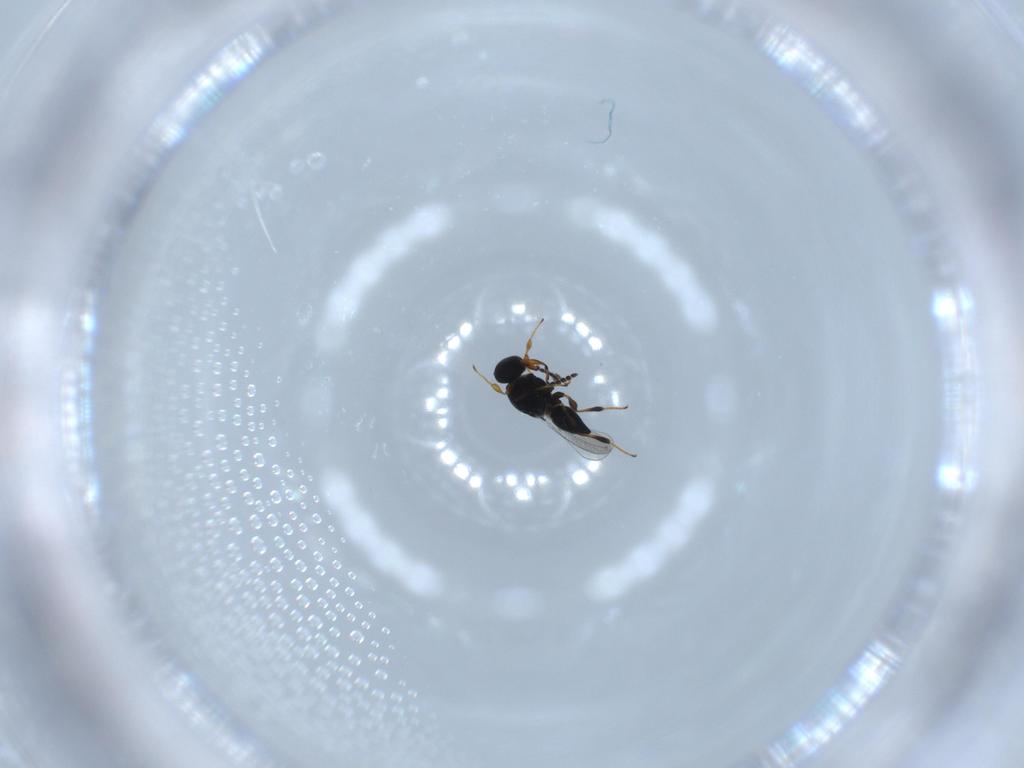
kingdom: Animalia
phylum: Arthropoda
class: Insecta
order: Hymenoptera
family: Platygastridae
